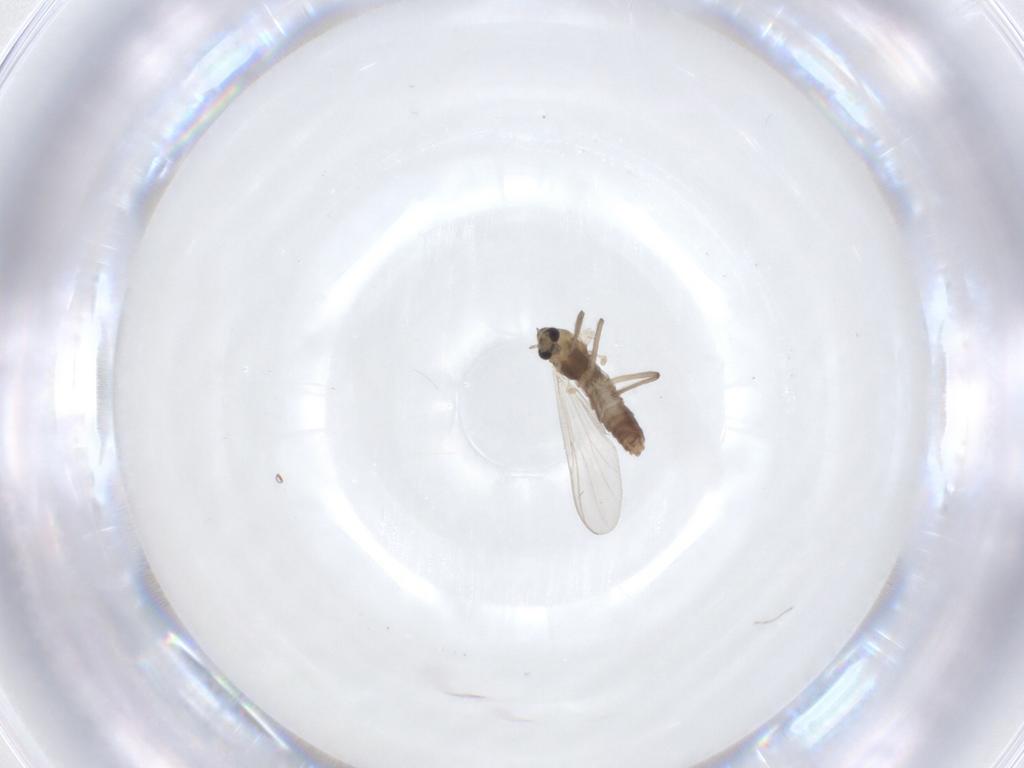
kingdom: Animalia
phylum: Arthropoda
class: Insecta
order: Diptera
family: Chironomidae
